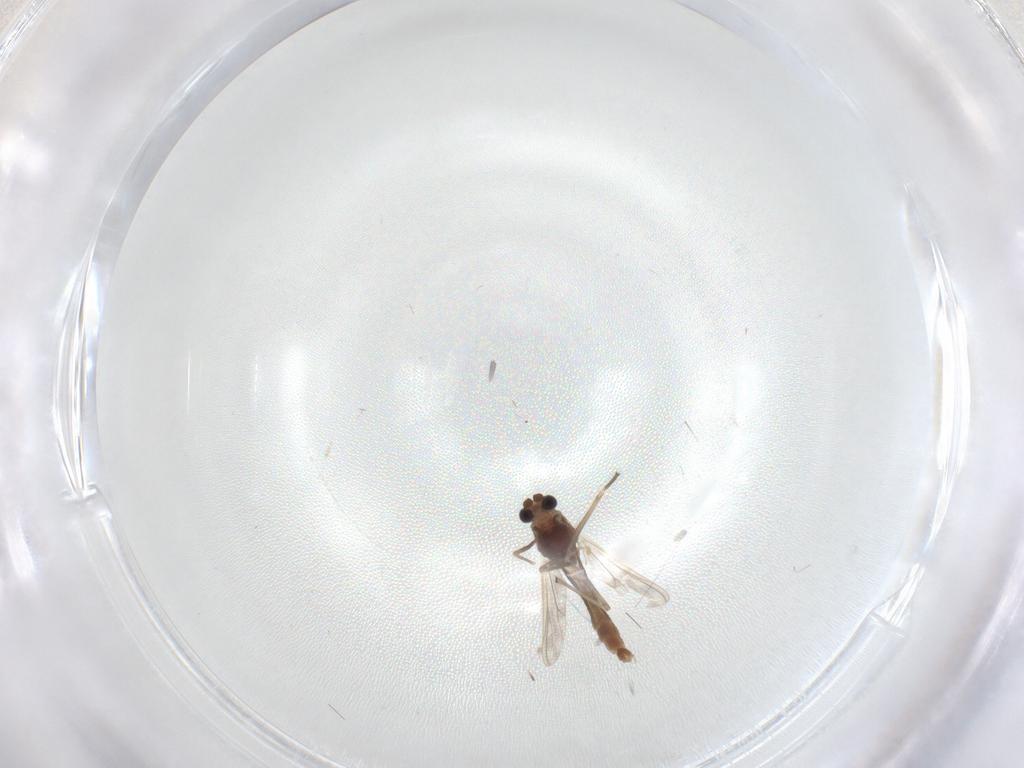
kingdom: Animalia
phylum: Arthropoda
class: Insecta
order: Diptera
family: Chironomidae
